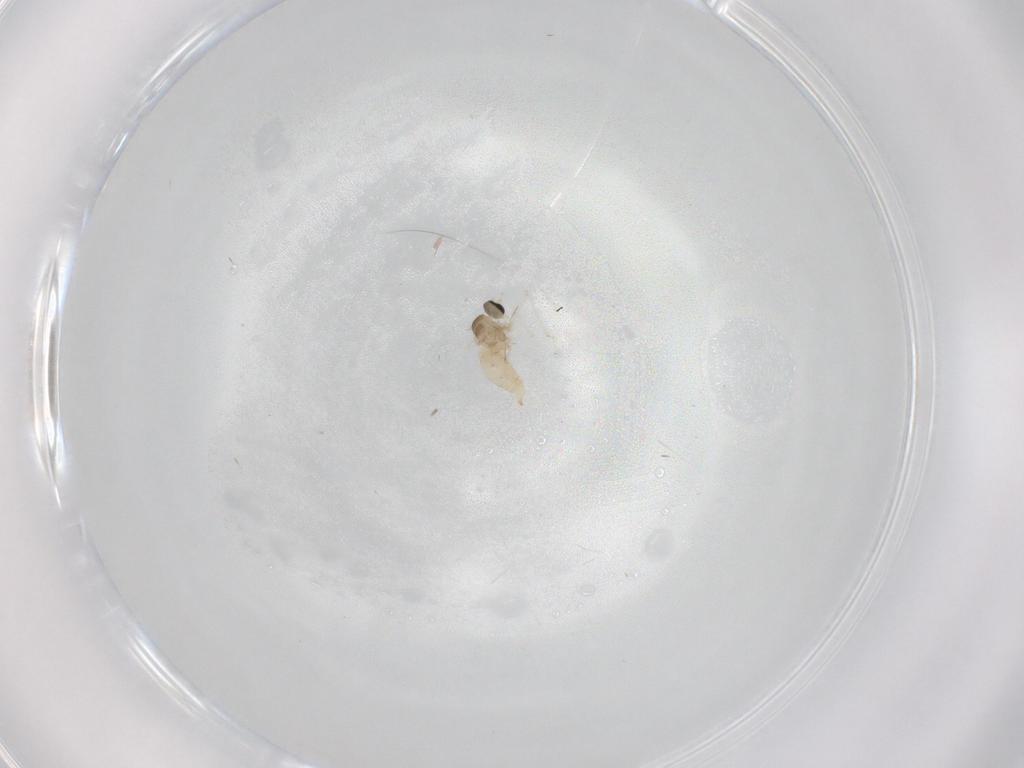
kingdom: Animalia
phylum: Arthropoda
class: Insecta
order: Diptera
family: Cecidomyiidae
